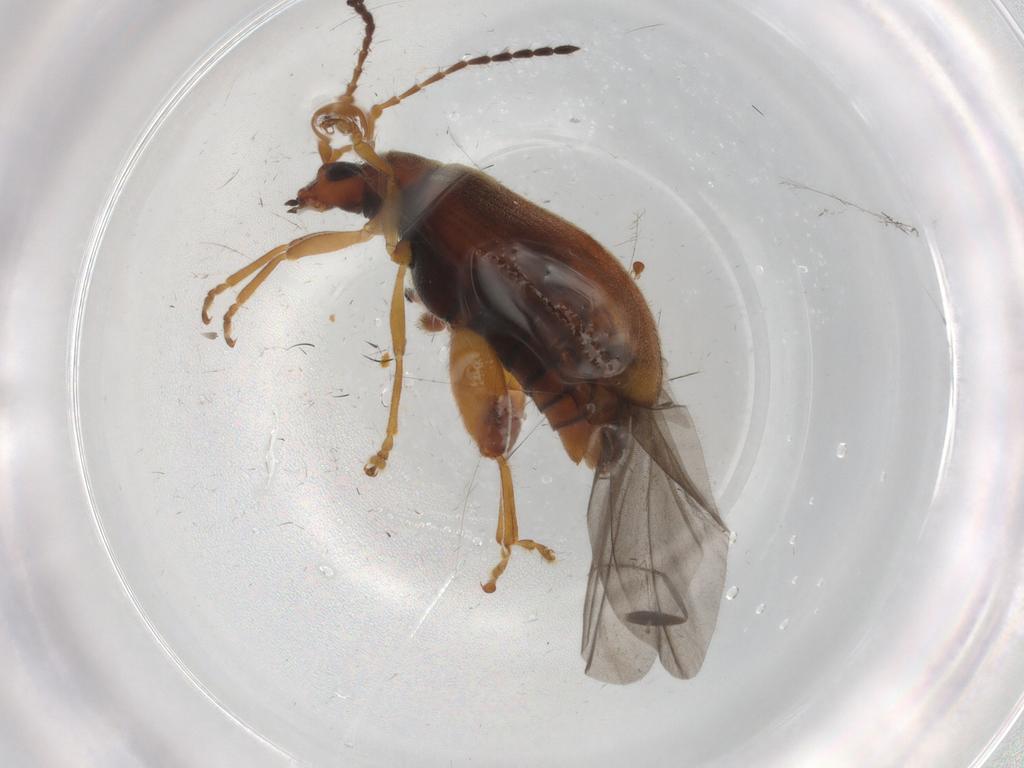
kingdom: Animalia
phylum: Arthropoda
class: Insecta
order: Coleoptera
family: Chrysomelidae
